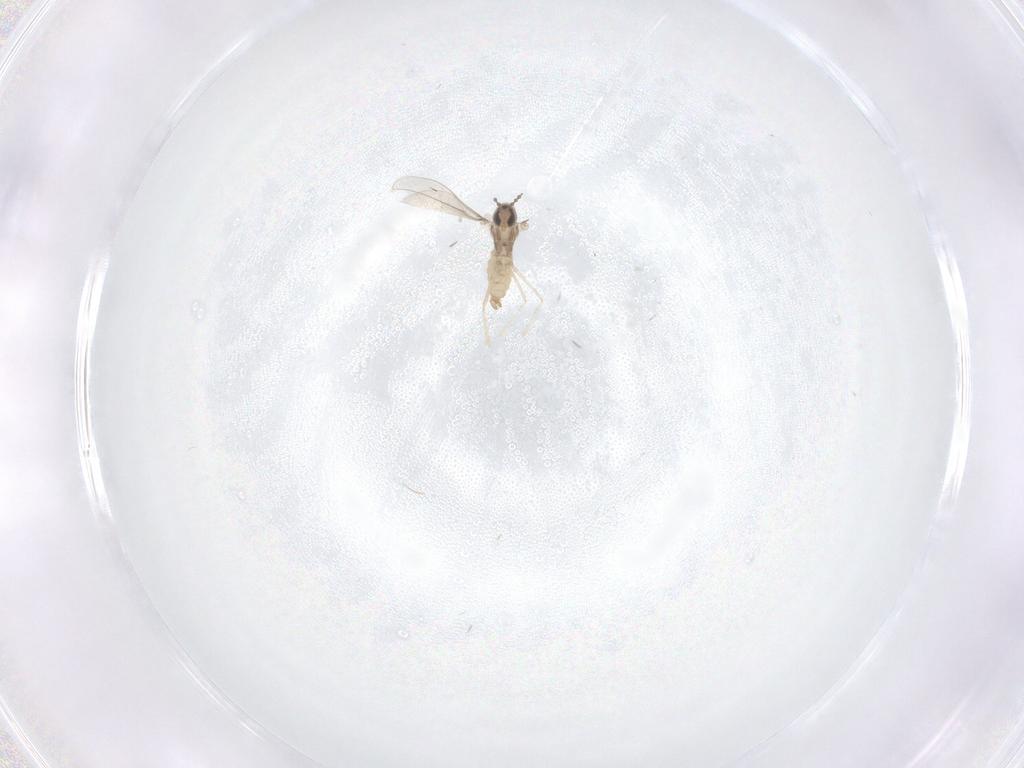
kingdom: Animalia
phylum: Arthropoda
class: Insecta
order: Diptera
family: Cecidomyiidae
